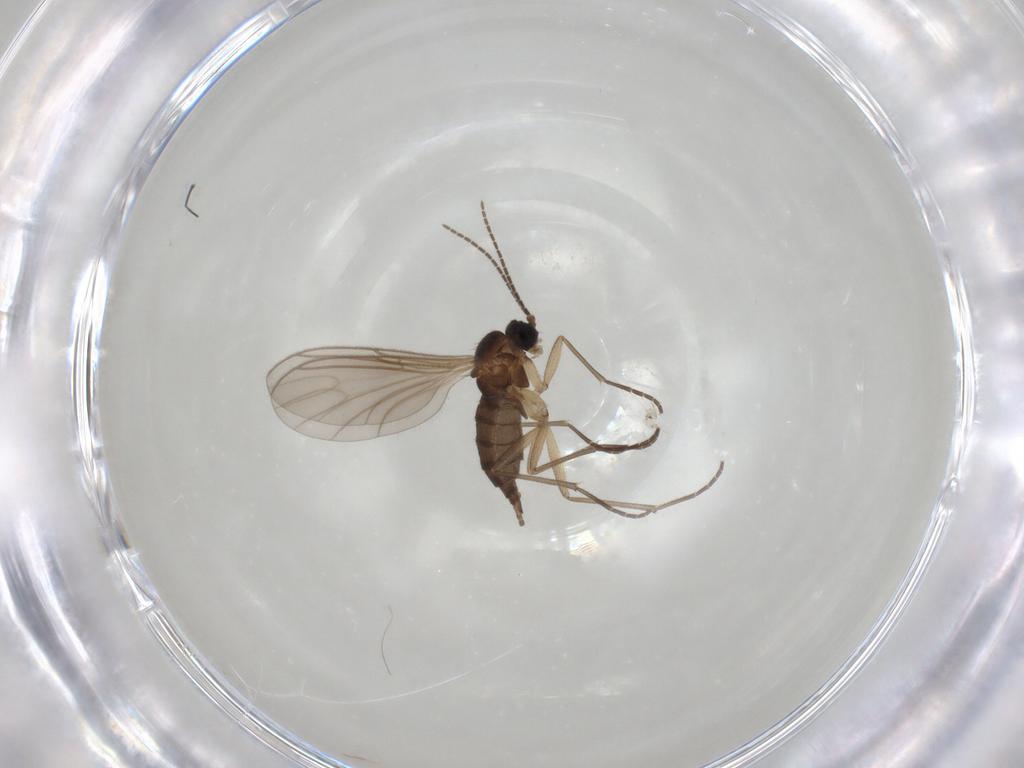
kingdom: Animalia
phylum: Arthropoda
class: Insecta
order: Diptera
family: Sciaridae
